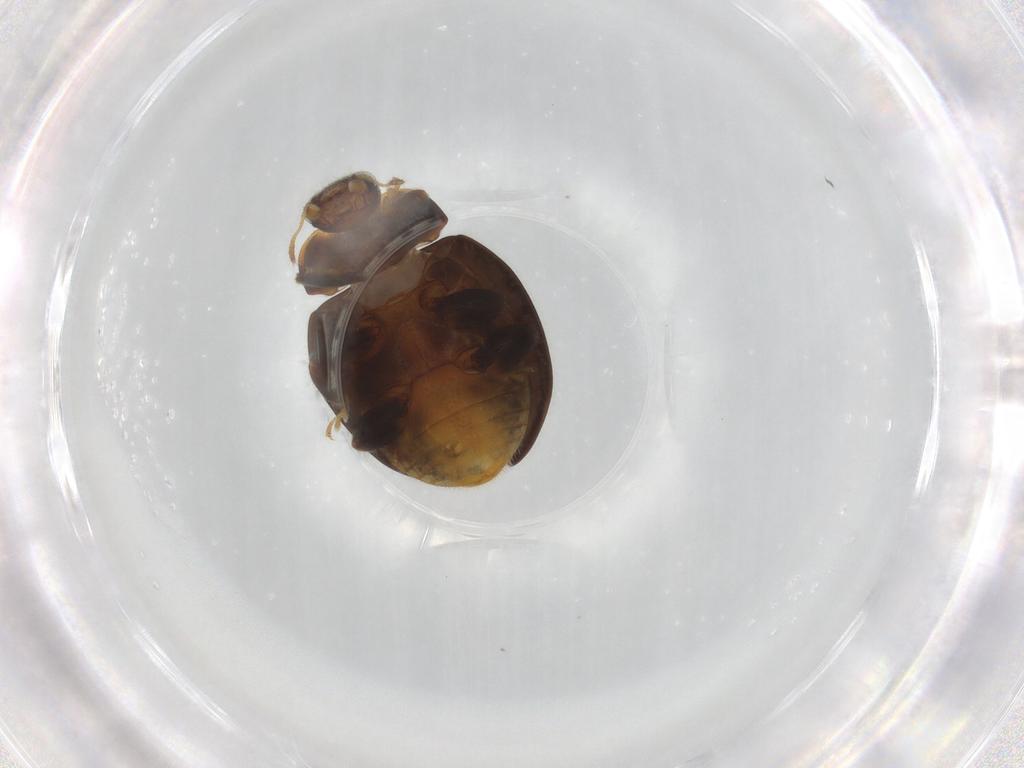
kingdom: Animalia
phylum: Arthropoda
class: Insecta
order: Coleoptera
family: Coccinellidae
